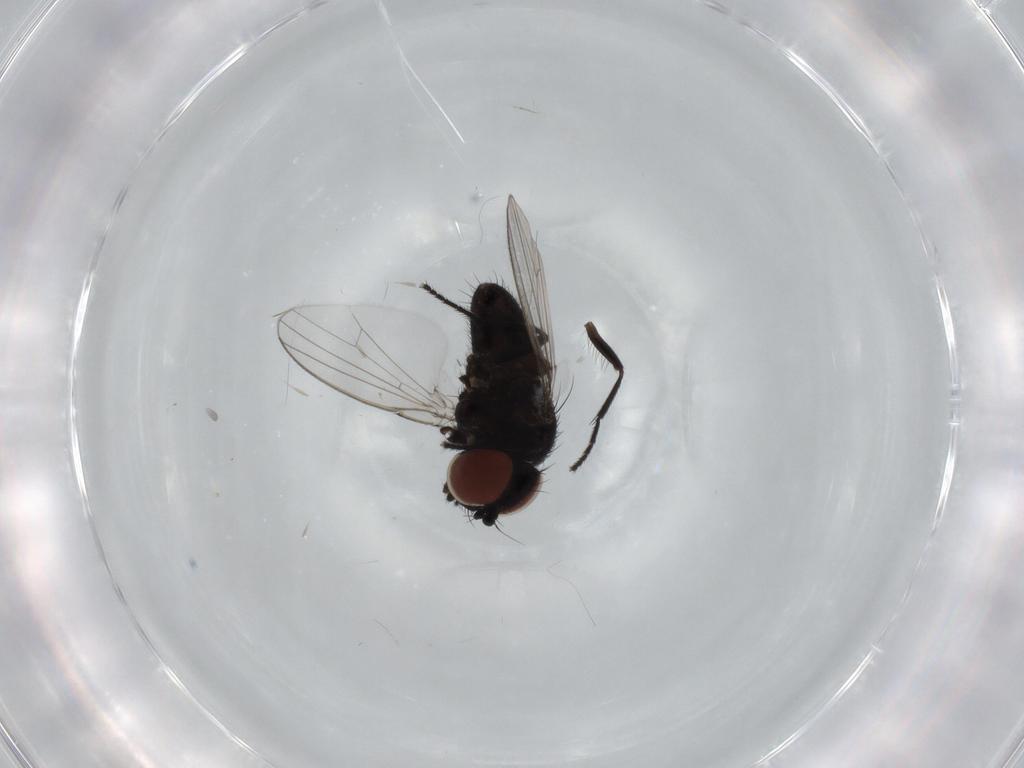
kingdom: Animalia
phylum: Arthropoda
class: Insecta
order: Diptera
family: Milichiidae
